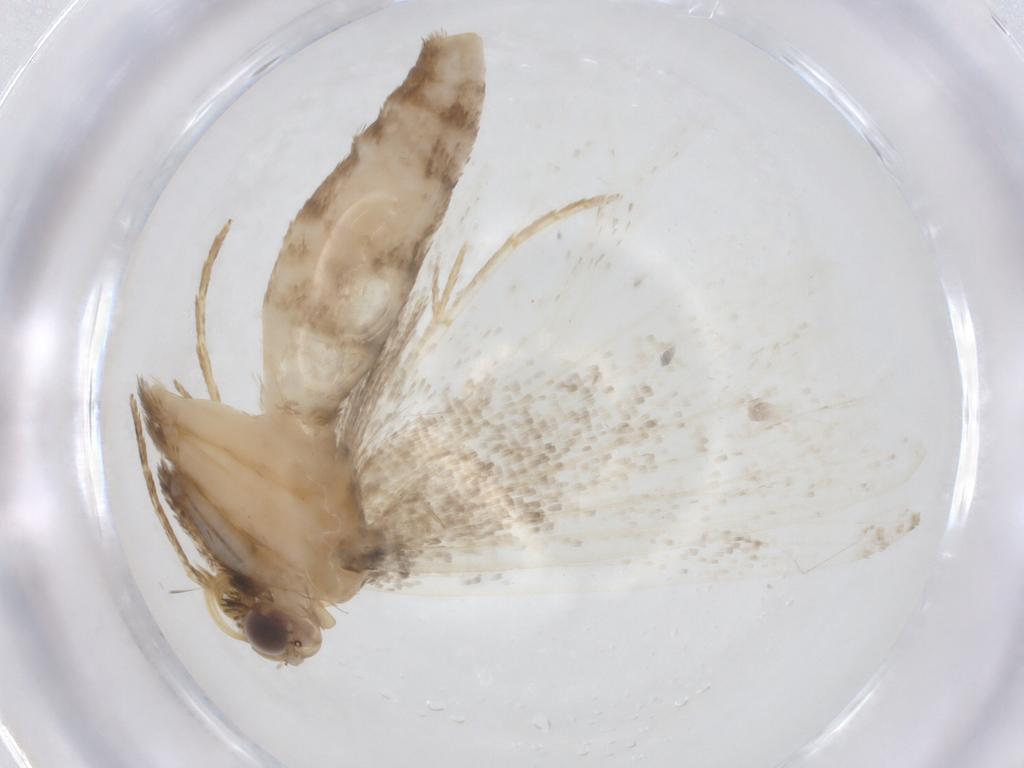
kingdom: Animalia
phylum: Arthropoda
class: Insecta
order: Lepidoptera
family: Erebidae
